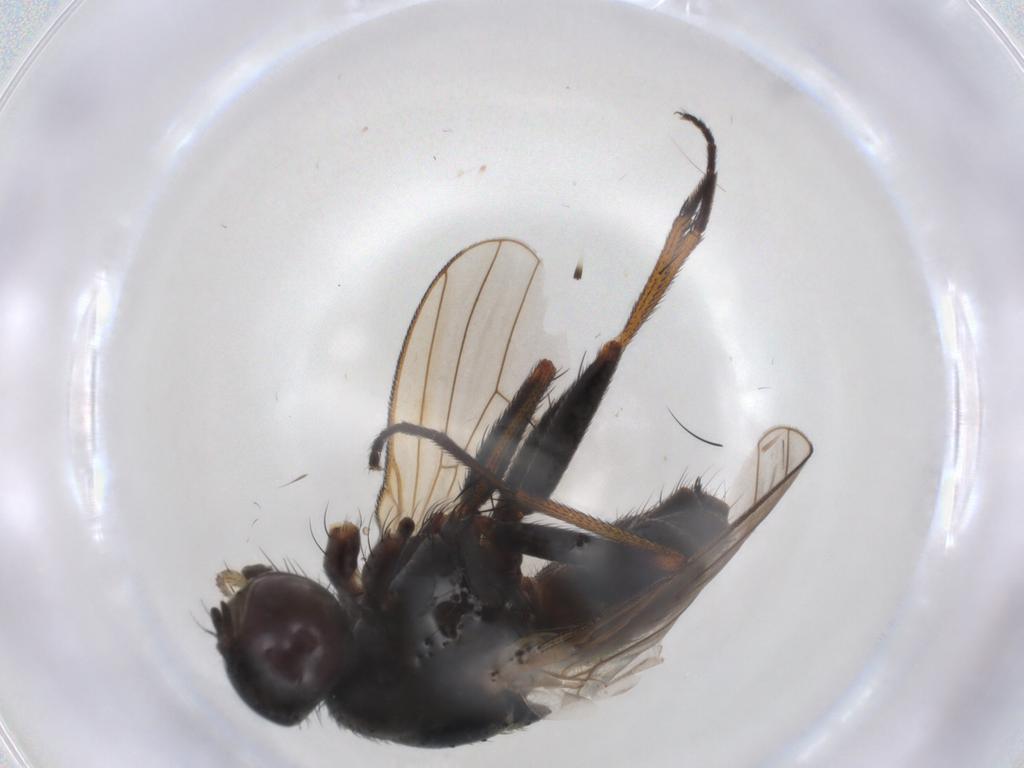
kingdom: Animalia
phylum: Arthropoda
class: Insecta
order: Diptera
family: Muscidae
